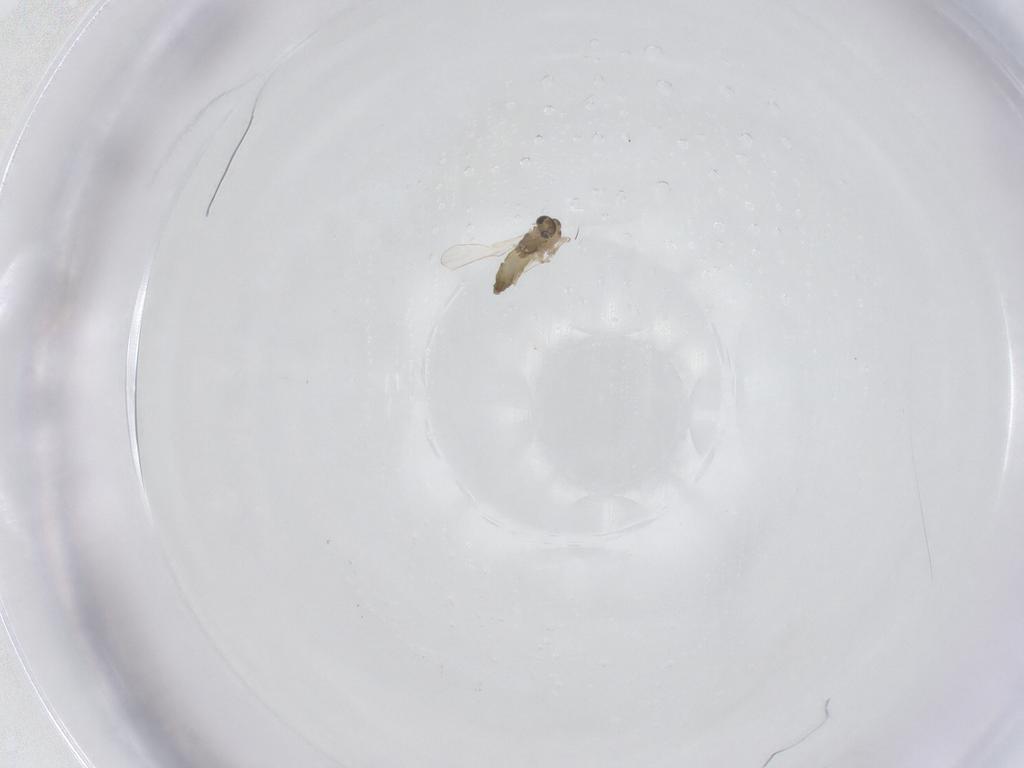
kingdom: Animalia
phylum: Arthropoda
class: Insecta
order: Diptera
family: Chironomidae
